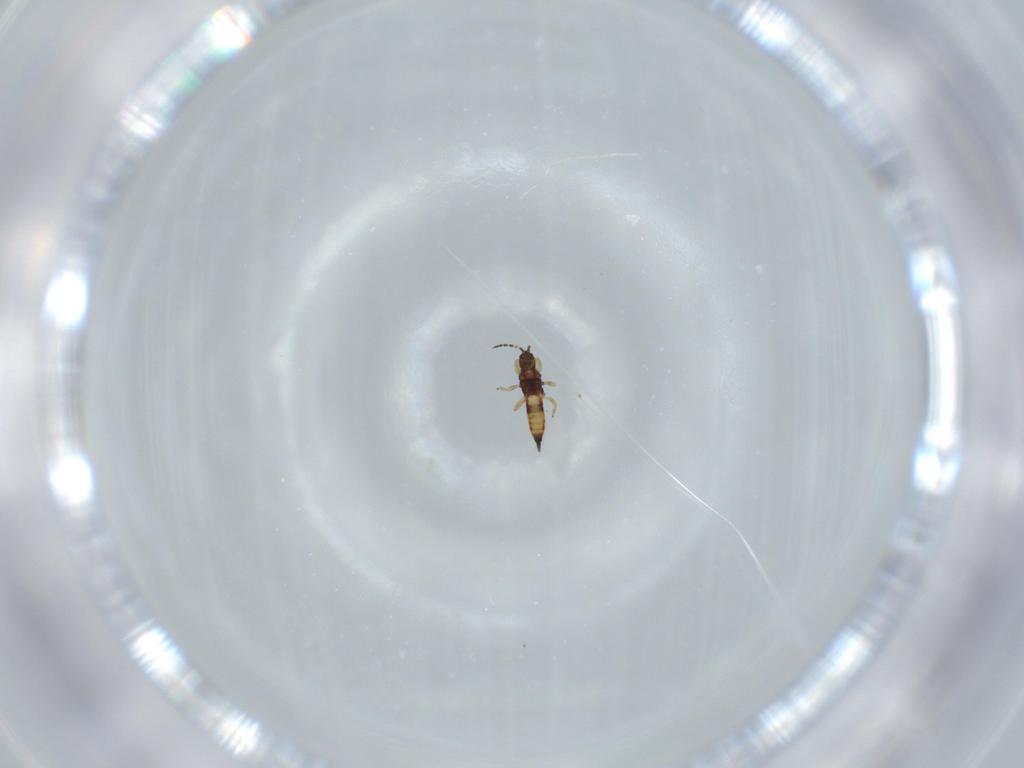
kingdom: Animalia
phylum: Arthropoda
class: Insecta
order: Thysanoptera
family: Phlaeothripidae
